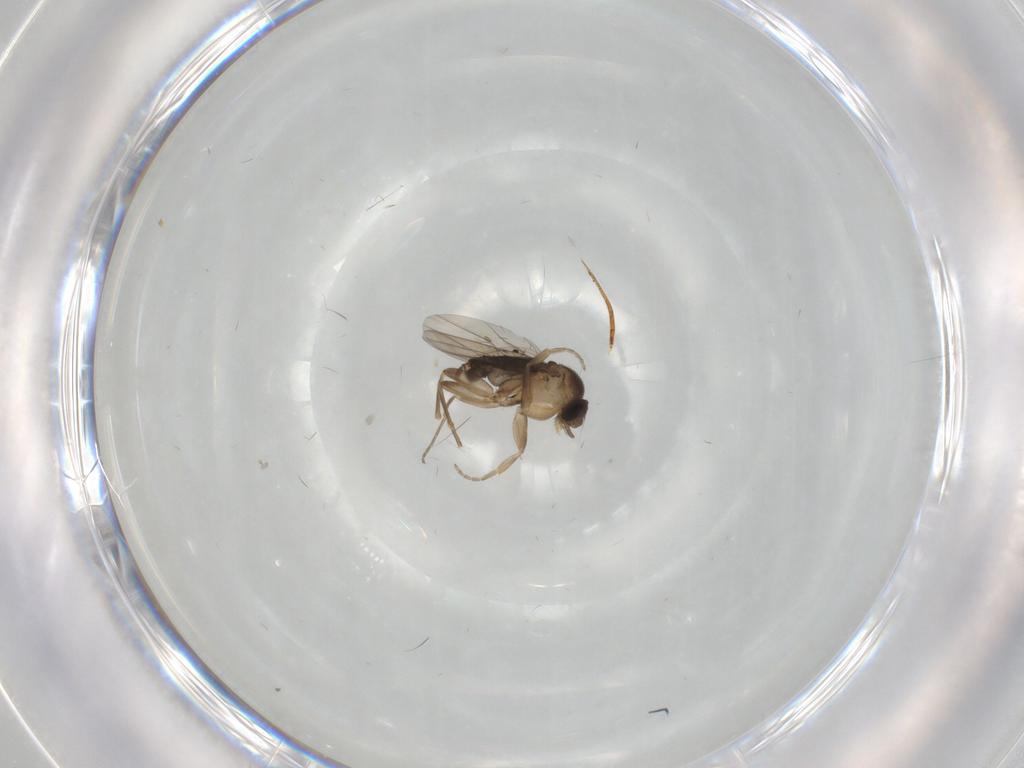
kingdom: Animalia
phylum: Arthropoda
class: Insecta
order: Diptera
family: Phoridae
